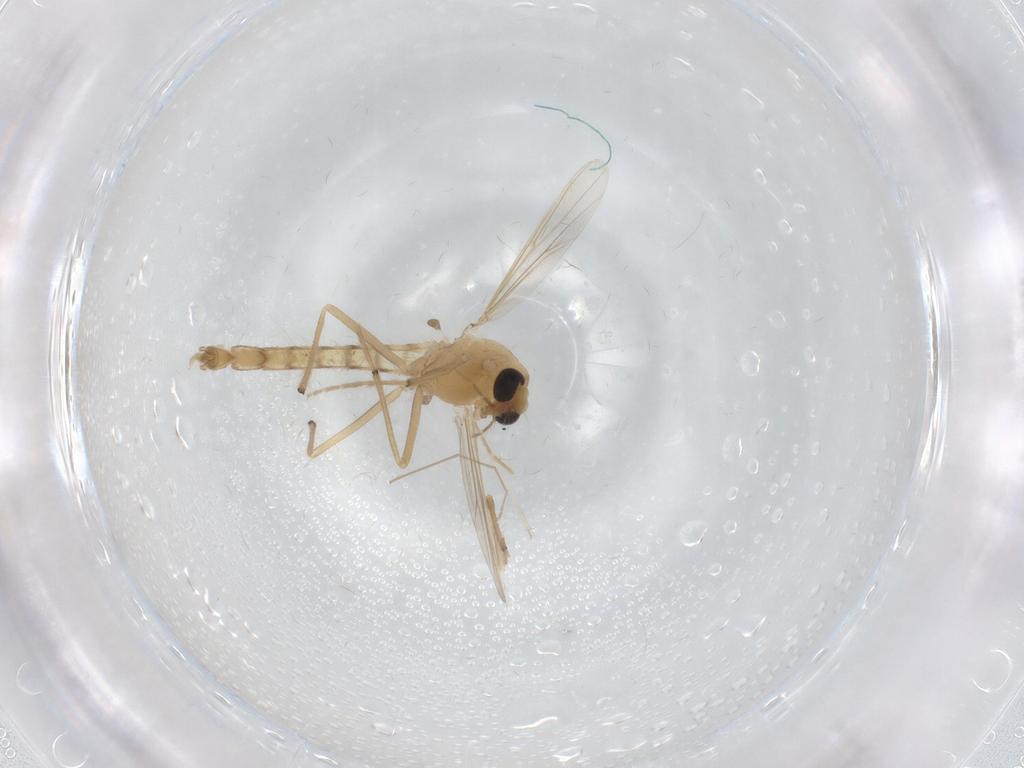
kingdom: Animalia
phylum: Arthropoda
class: Insecta
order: Diptera
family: Chironomidae
